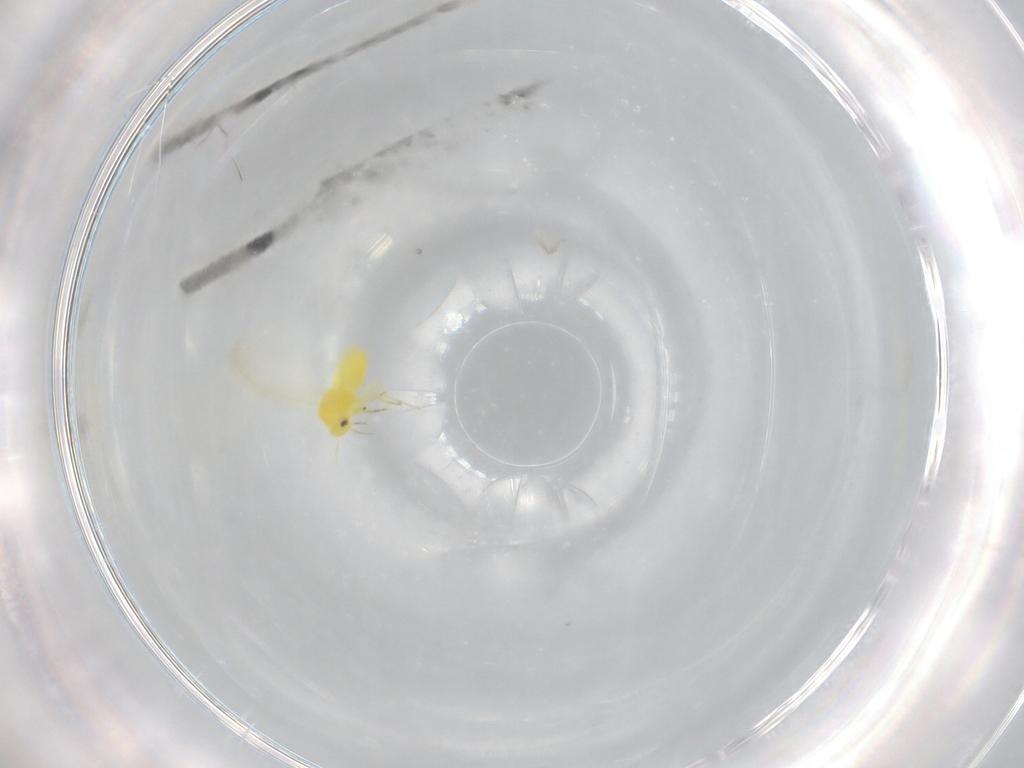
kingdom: Animalia
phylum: Arthropoda
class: Insecta
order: Hemiptera
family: Aleyrodidae
